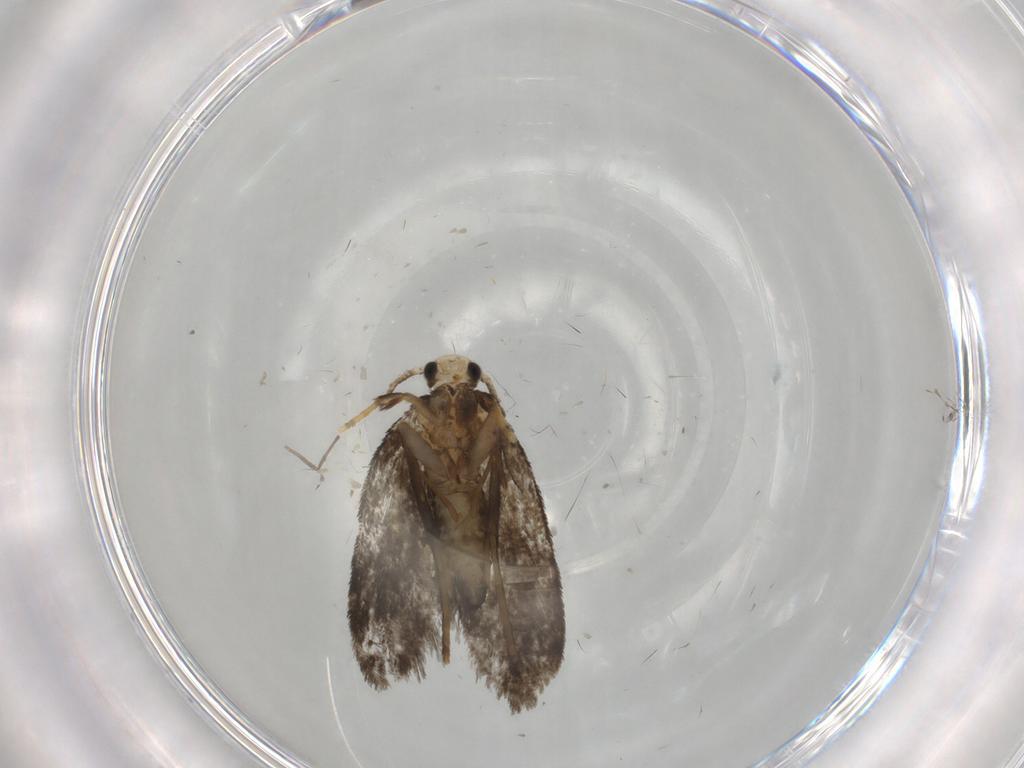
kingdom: Animalia
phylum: Arthropoda
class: Insecta
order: Lepidoptera
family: Psychidae
